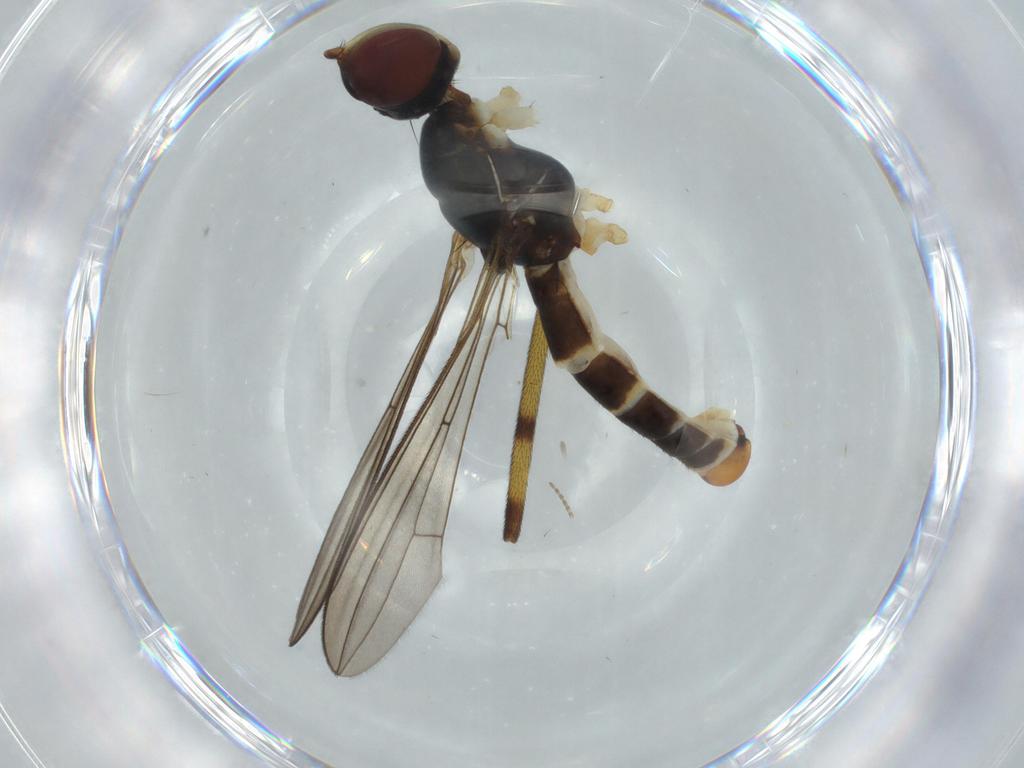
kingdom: Animalia
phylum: Arthropoda
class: Insecta
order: Diptera
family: Micropezidae
